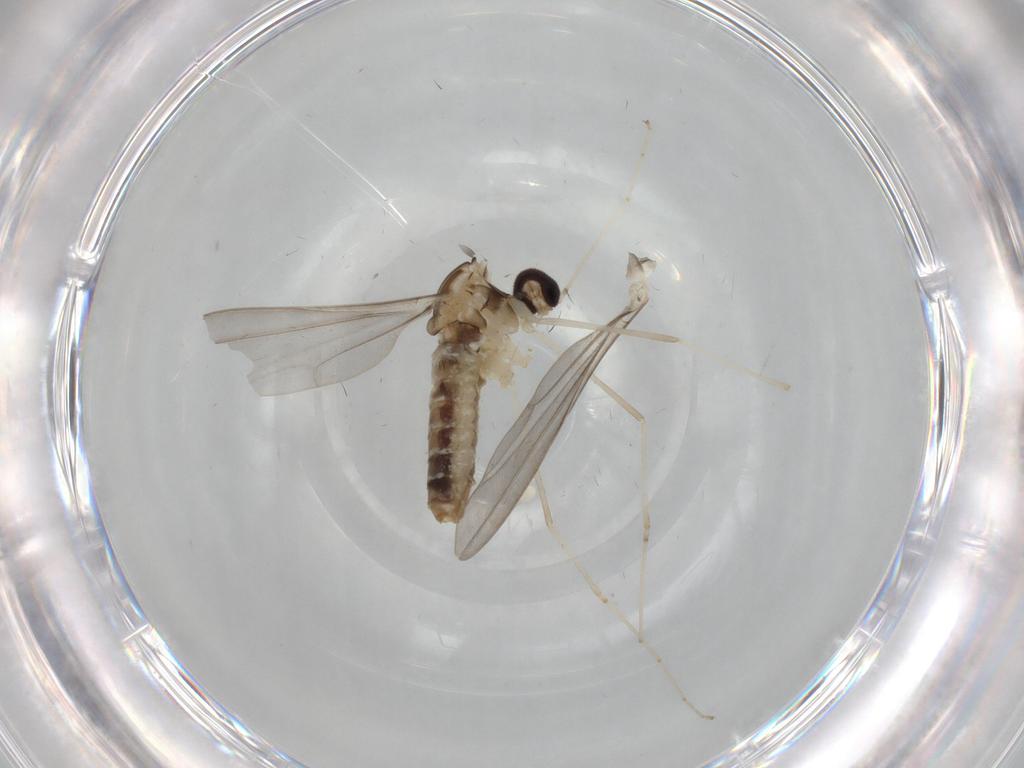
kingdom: Animalia
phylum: Arthropoda
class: Insecta
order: Diptera
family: Cecidomyiidae
